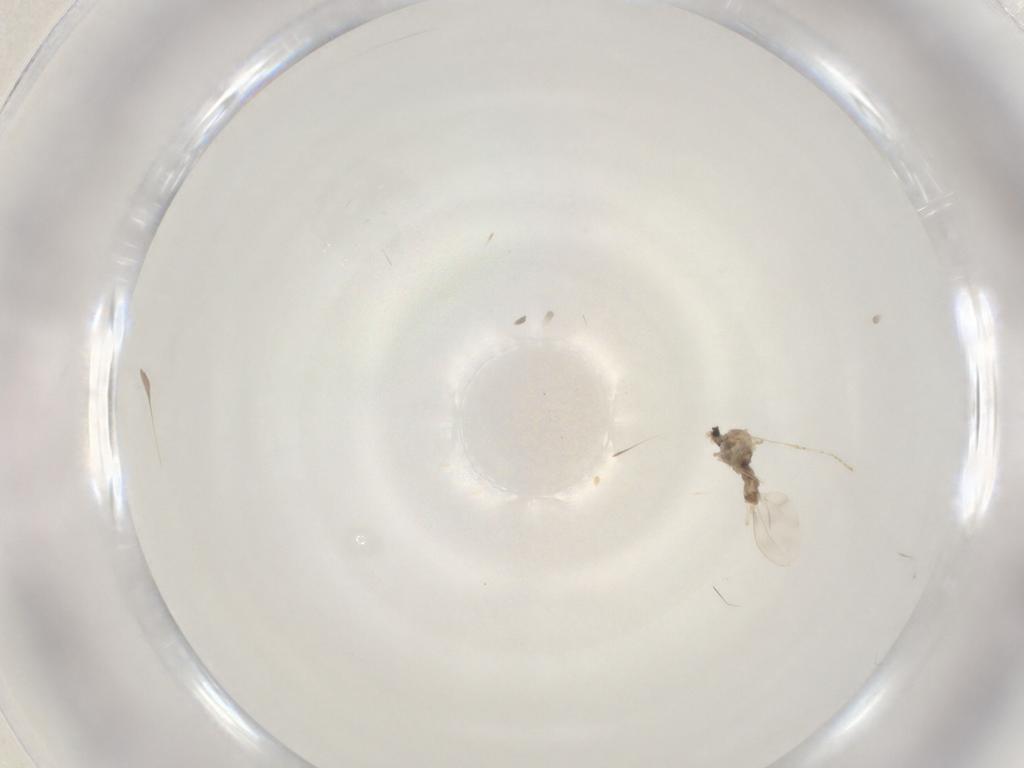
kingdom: Animalia
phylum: Arthropoda
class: Insecta
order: Diptera
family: Cecidomyiidae
